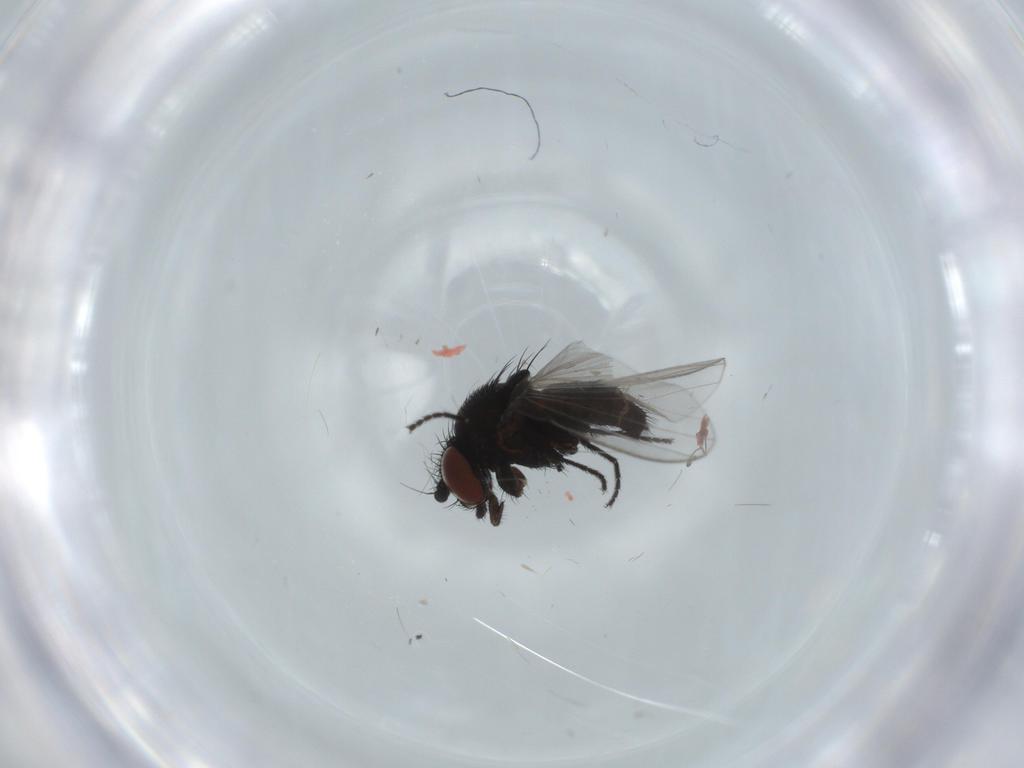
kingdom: Animalia
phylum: Arthropoda
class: Insecta
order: Diptera
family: Milichiidae
